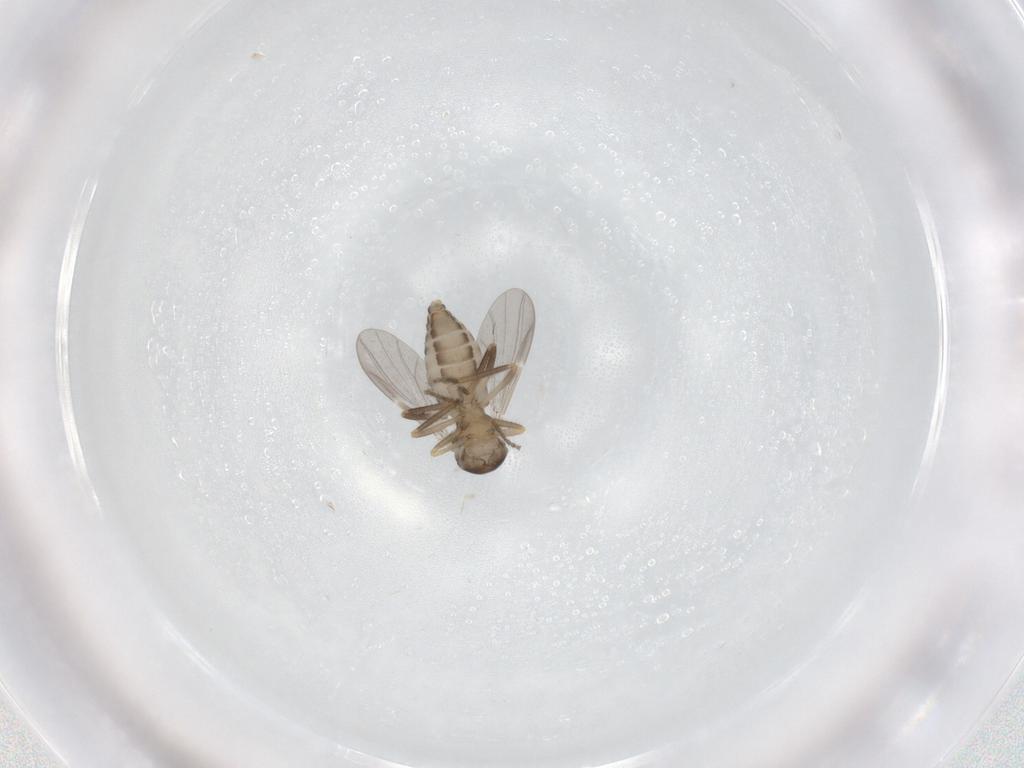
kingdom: Animalia
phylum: Arthropoda
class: Insecta
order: Diptera
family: Ceratopogonidae
